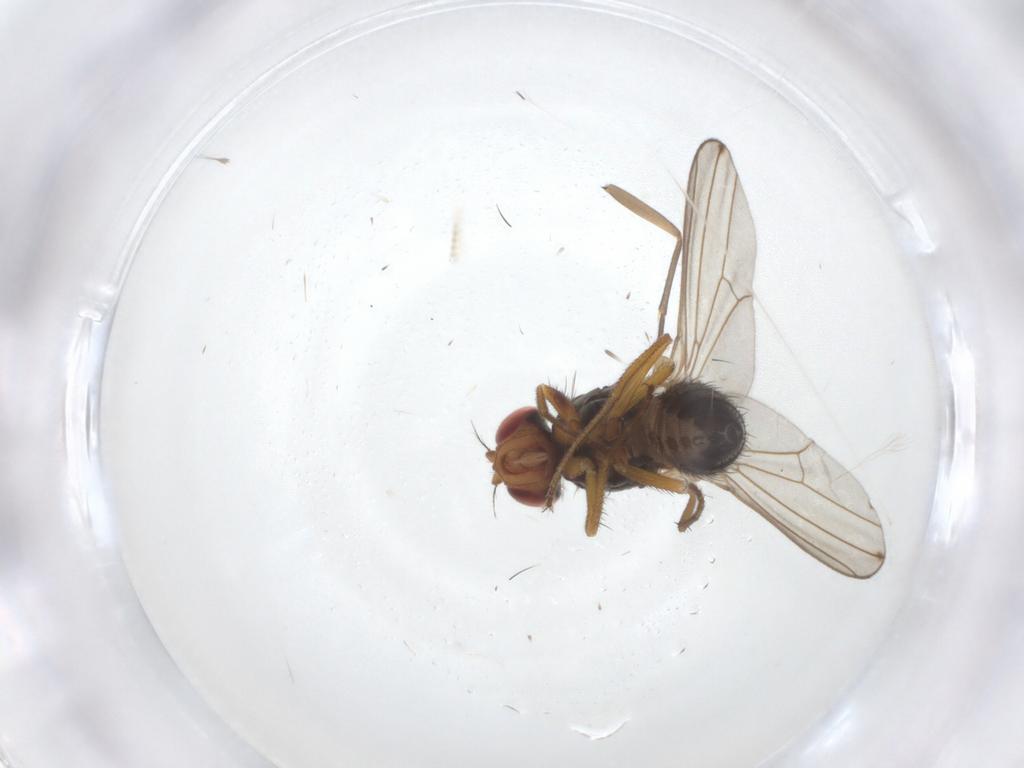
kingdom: Animalia
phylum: Arthropoda
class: Insecta
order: Diptera
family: Drosophilidae
